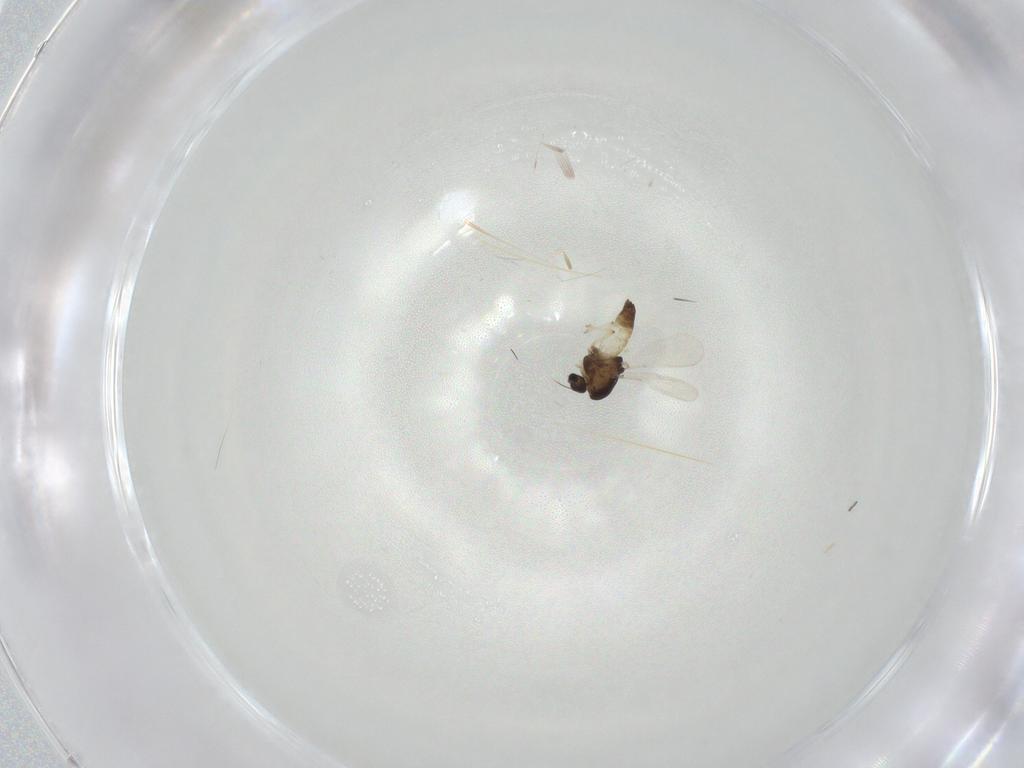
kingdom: Animalia
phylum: Arthropoda
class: Insecta
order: Diptera
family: Chironomidae
